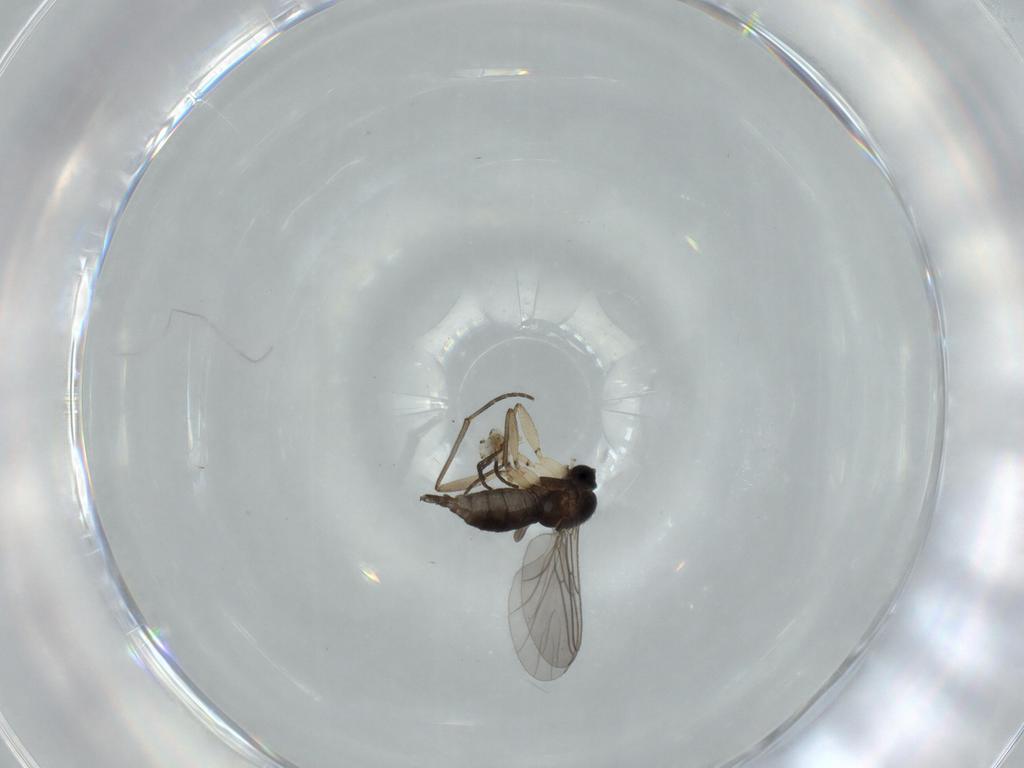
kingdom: Animalia
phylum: Arthropoda
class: Insecta
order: Diptera
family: Sciaridae
